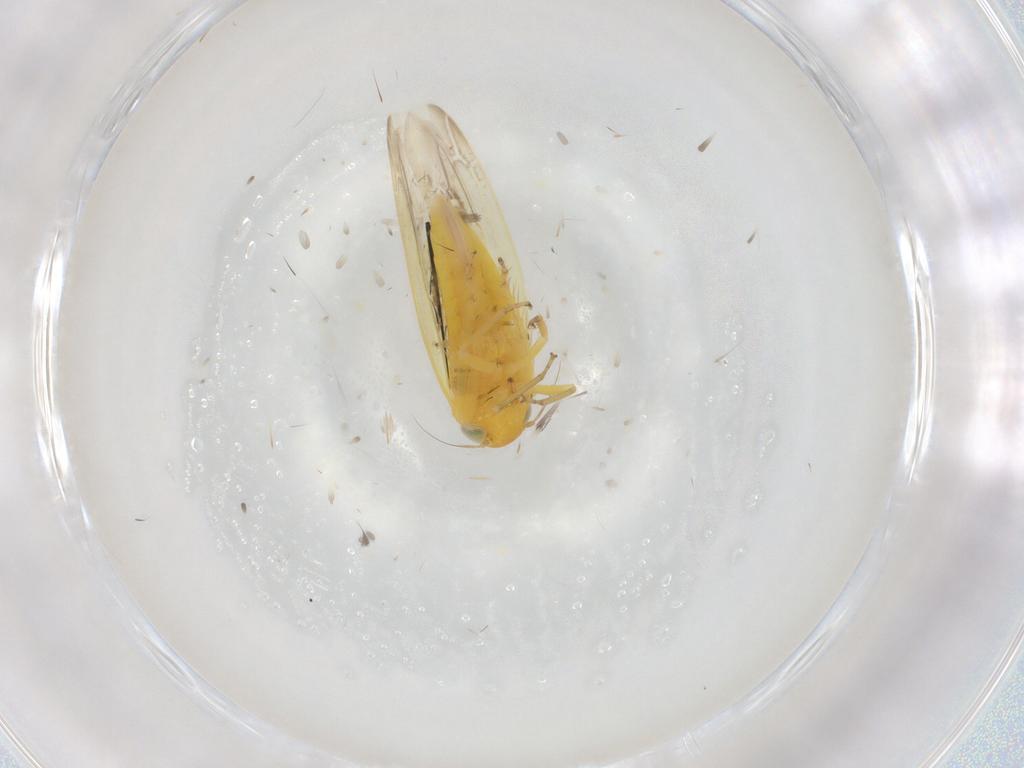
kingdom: Animalia
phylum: Arthropoda
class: Insecta
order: Hemiptera
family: Cicadellidae
